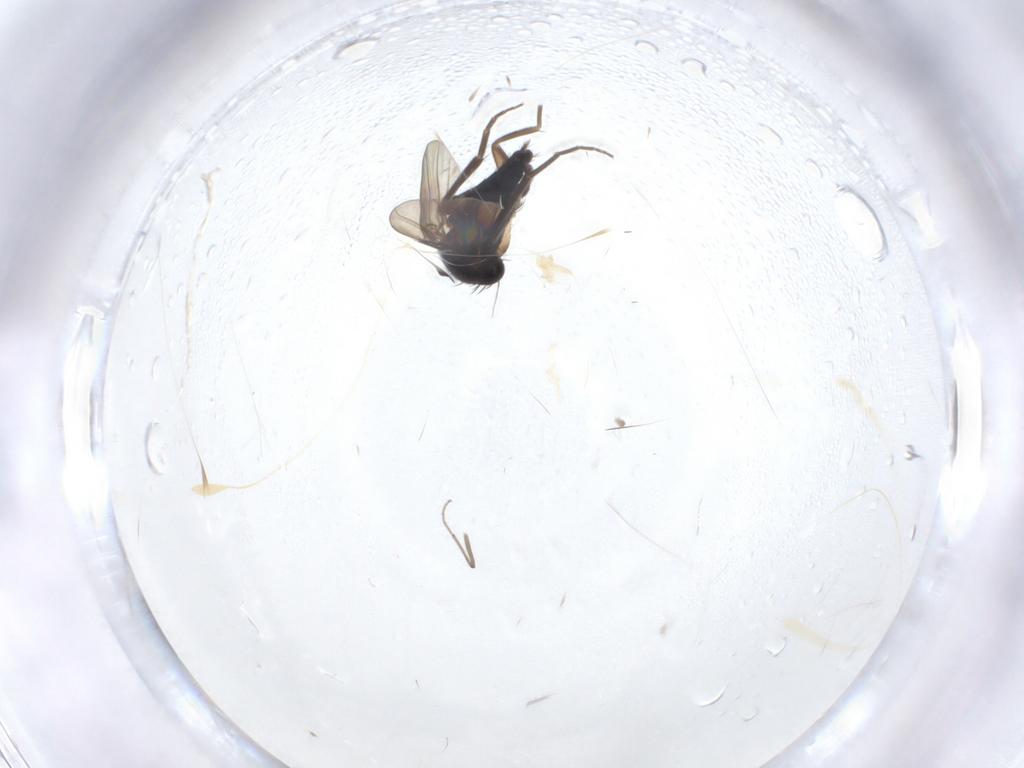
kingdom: Animalia
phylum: Arthropoda
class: Insecta
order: Diptera
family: Phoridae
